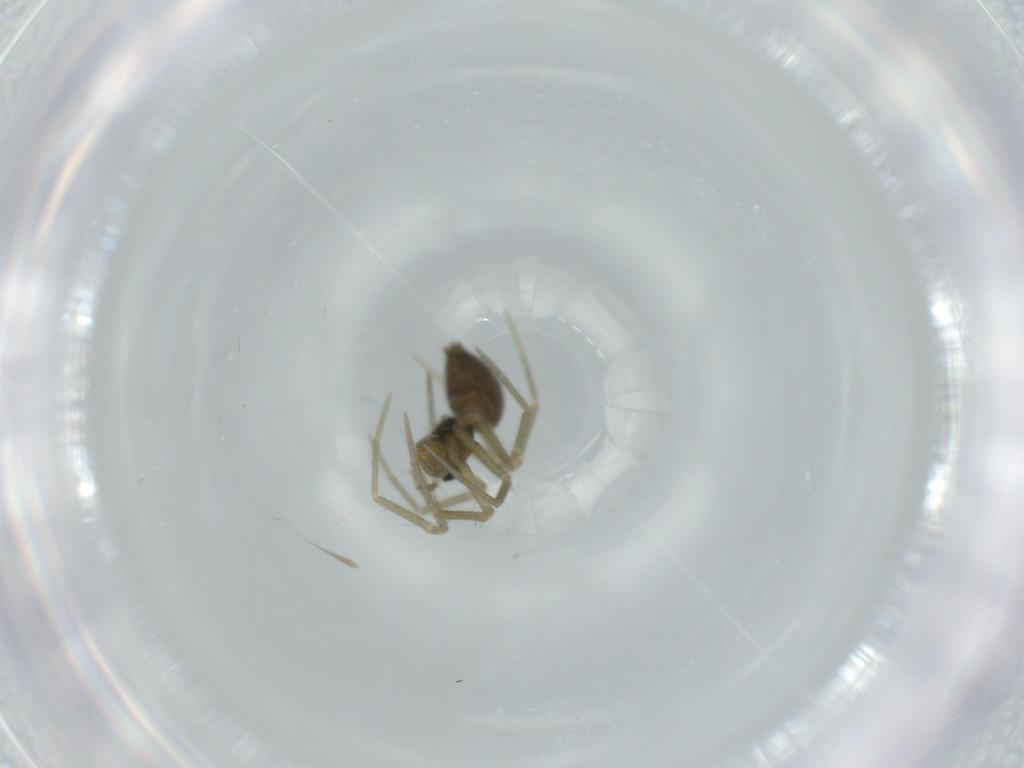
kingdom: Animalia
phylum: Arthropoda
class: Arachnida
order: Araneae
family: Linyphiidae
